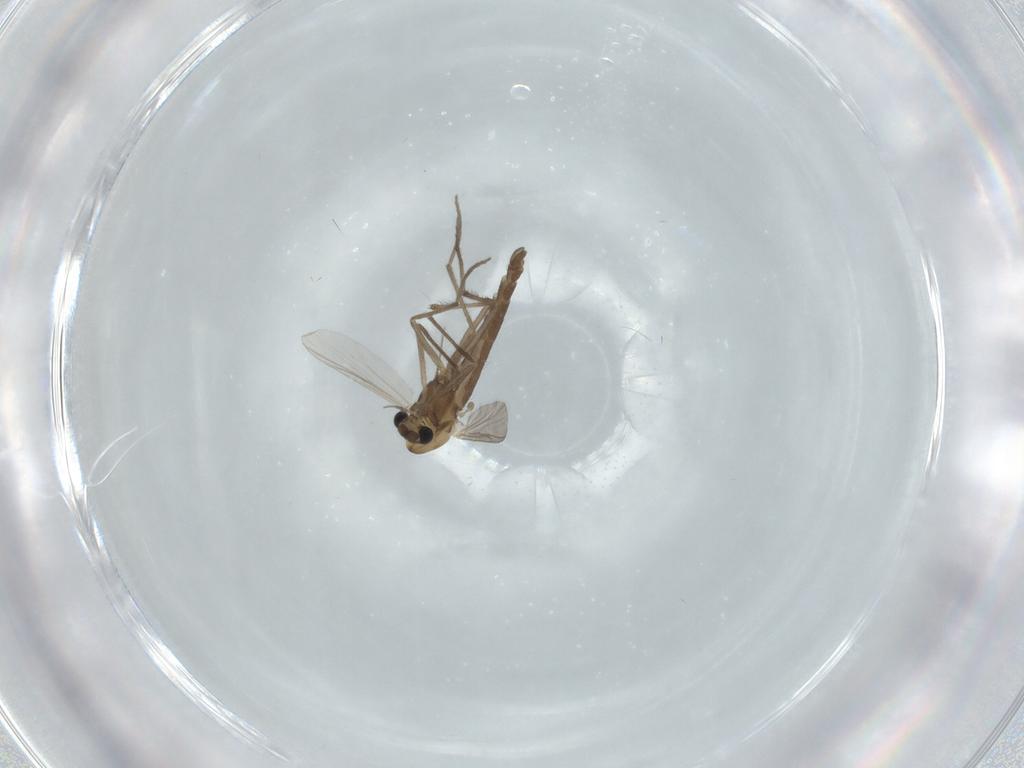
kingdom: Animalia
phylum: Arthropoda
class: Insecta
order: Diptera
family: Chironomidae
